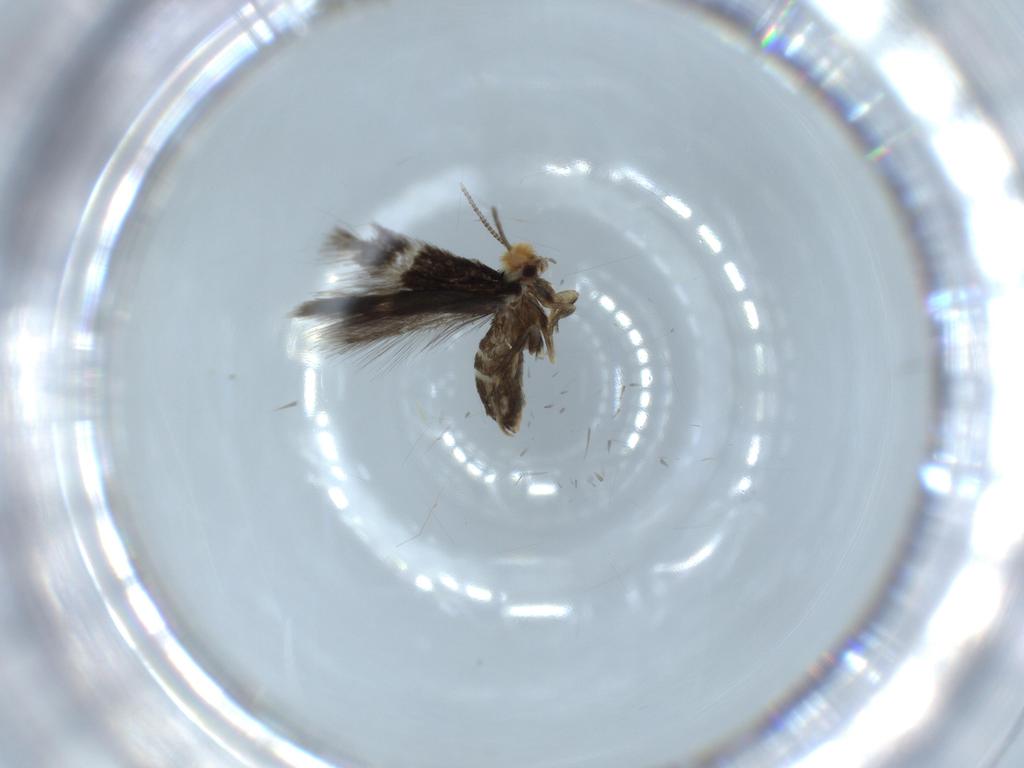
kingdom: Animalia
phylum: Arthropoda
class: Insecta
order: Lepidoptera
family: Nepticulidae
